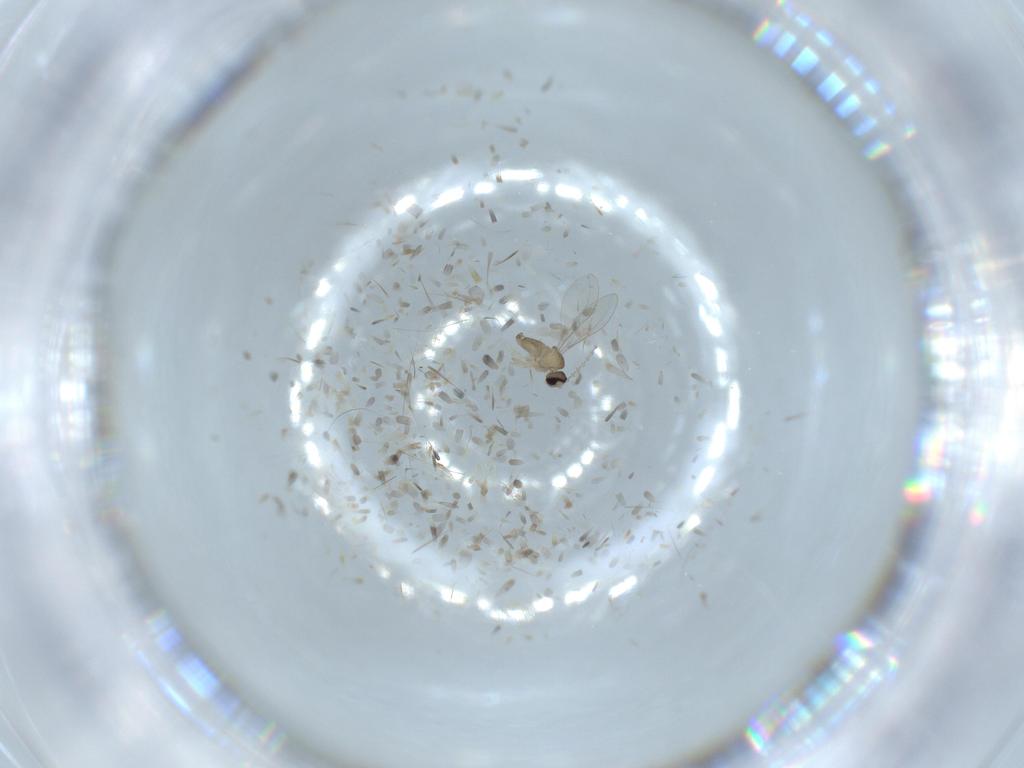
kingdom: Animalia
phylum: Arthropoda
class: Insecta
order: Diptera
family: Cecidomyiidae
